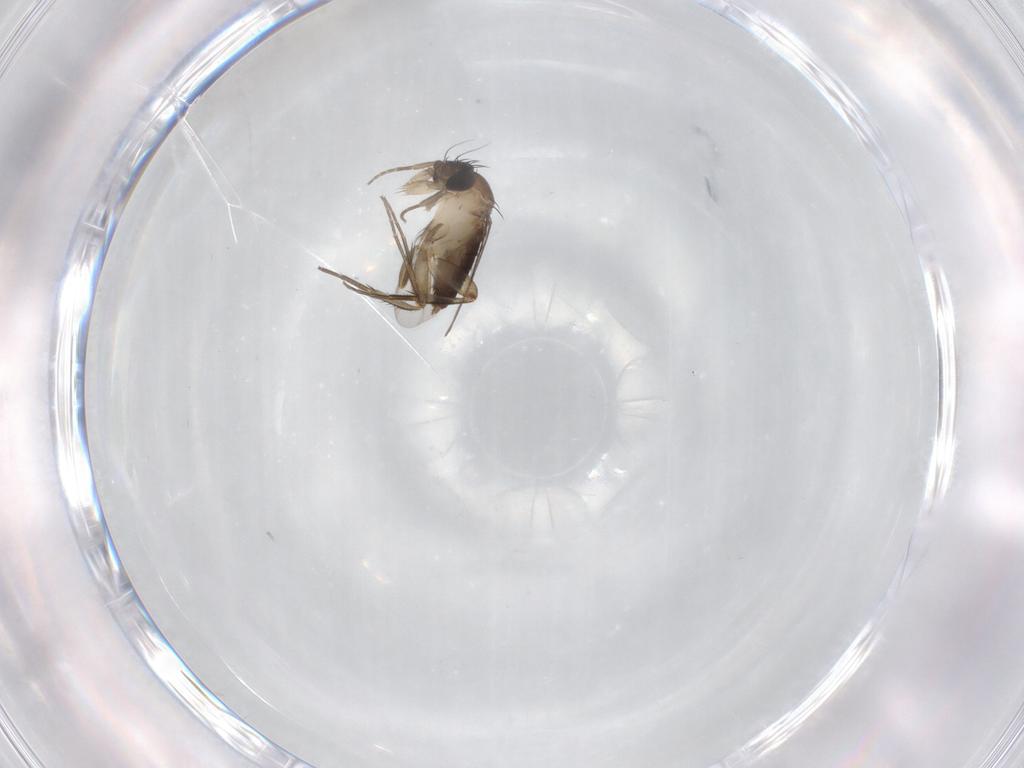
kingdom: Animalia
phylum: Arthropoda
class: Insecta
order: Diptera
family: Phoridae
